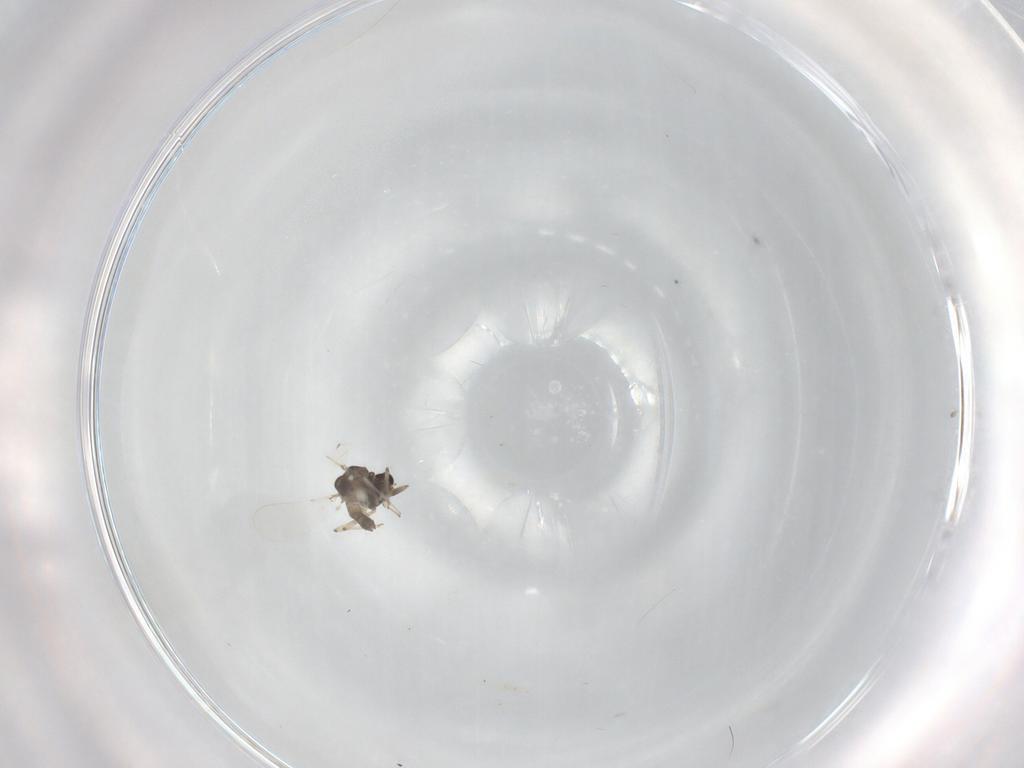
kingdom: Animalia
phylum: Arthropoda
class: Insecta
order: Diptera
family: Chironomidae
